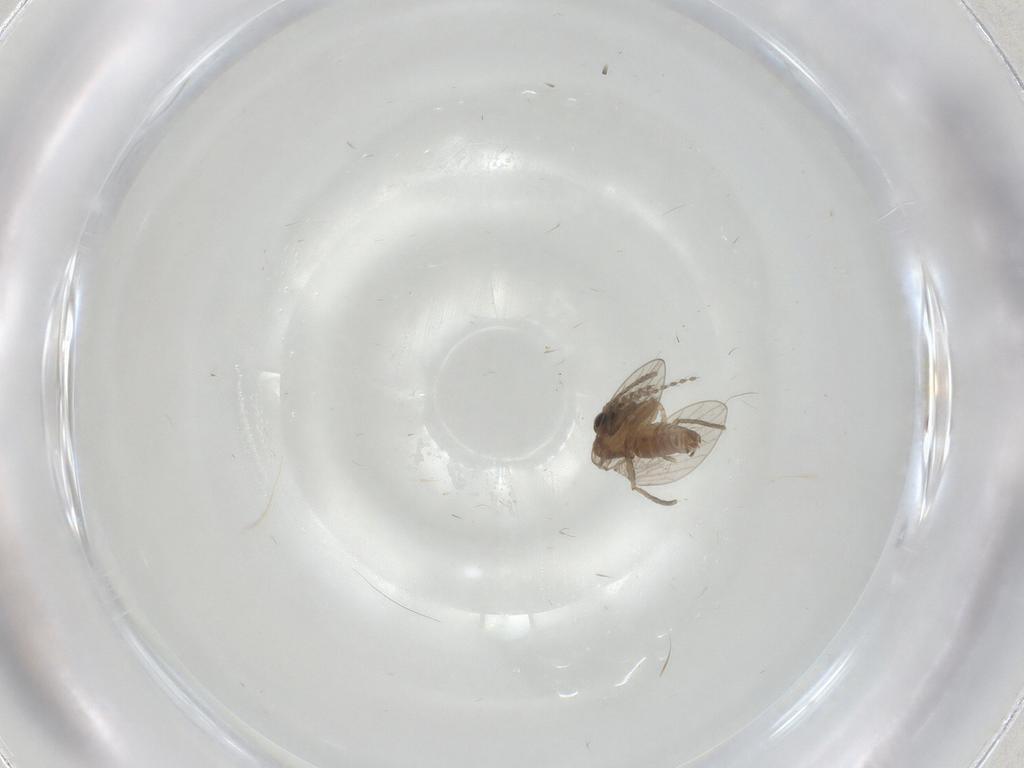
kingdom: Animalia
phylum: Arthropoda
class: Insecta
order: Diptera
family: Psychodidae
